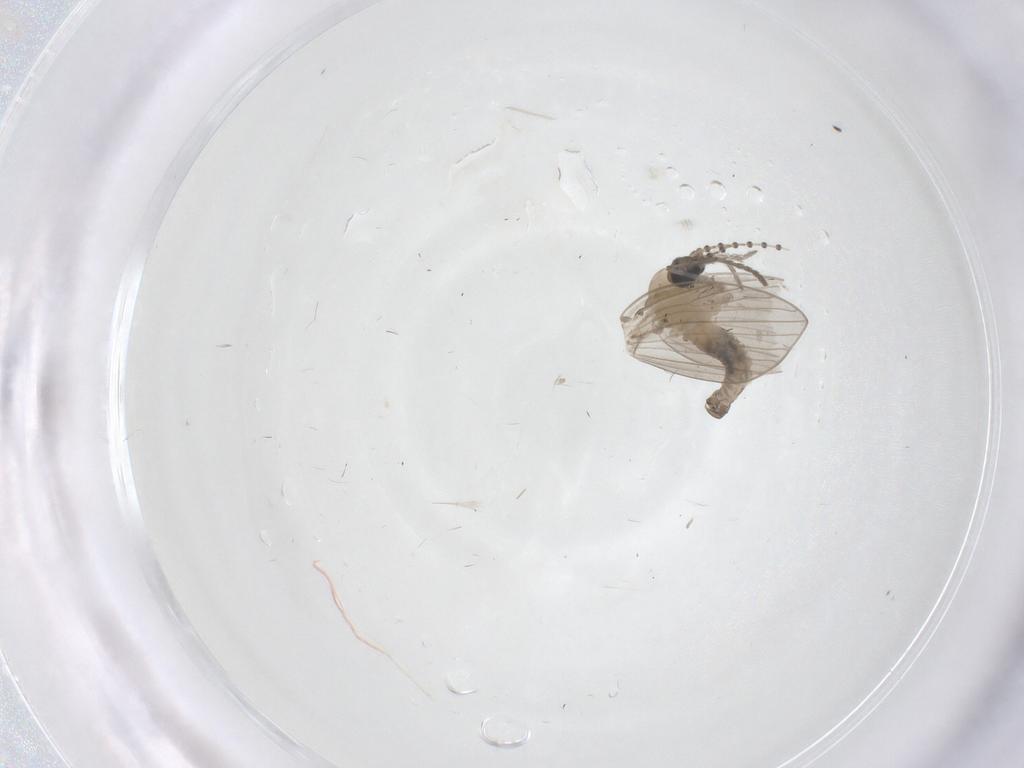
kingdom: Animalia
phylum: Arthropoda
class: Insecta
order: Diptera
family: Psychodidae
